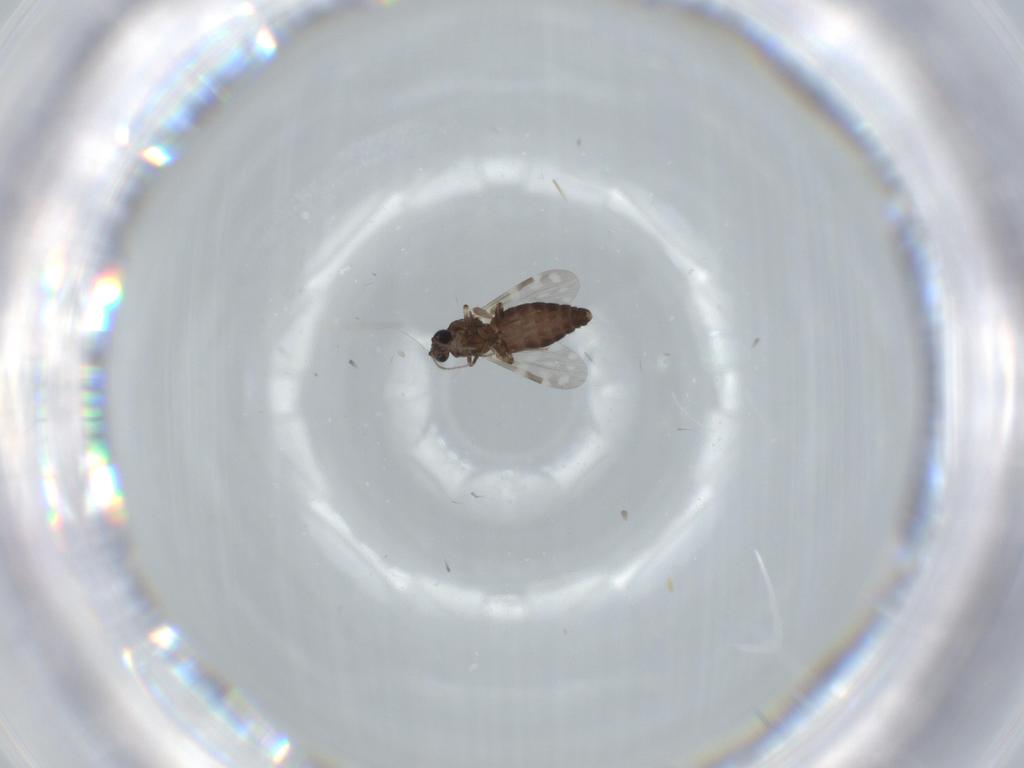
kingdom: Animalia
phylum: Arthropoda
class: Insecta
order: Diptera
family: Ceratopogonidae
